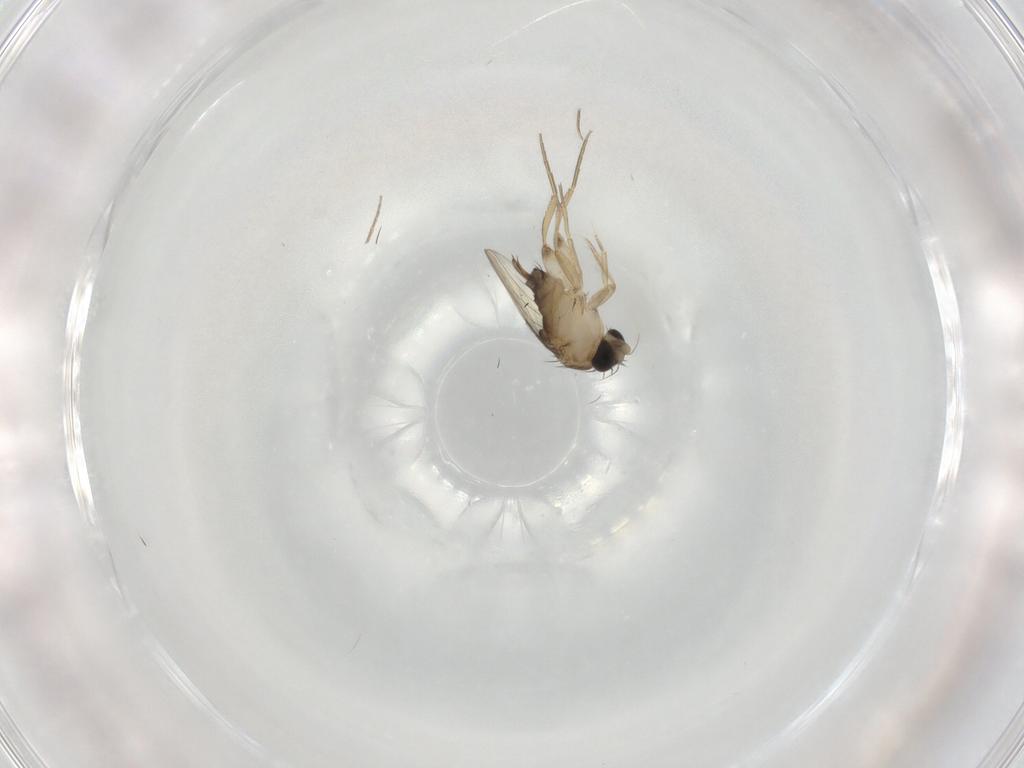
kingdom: Animalia
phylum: Arthropoda
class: Insecta
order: Diptera
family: Phoridae
